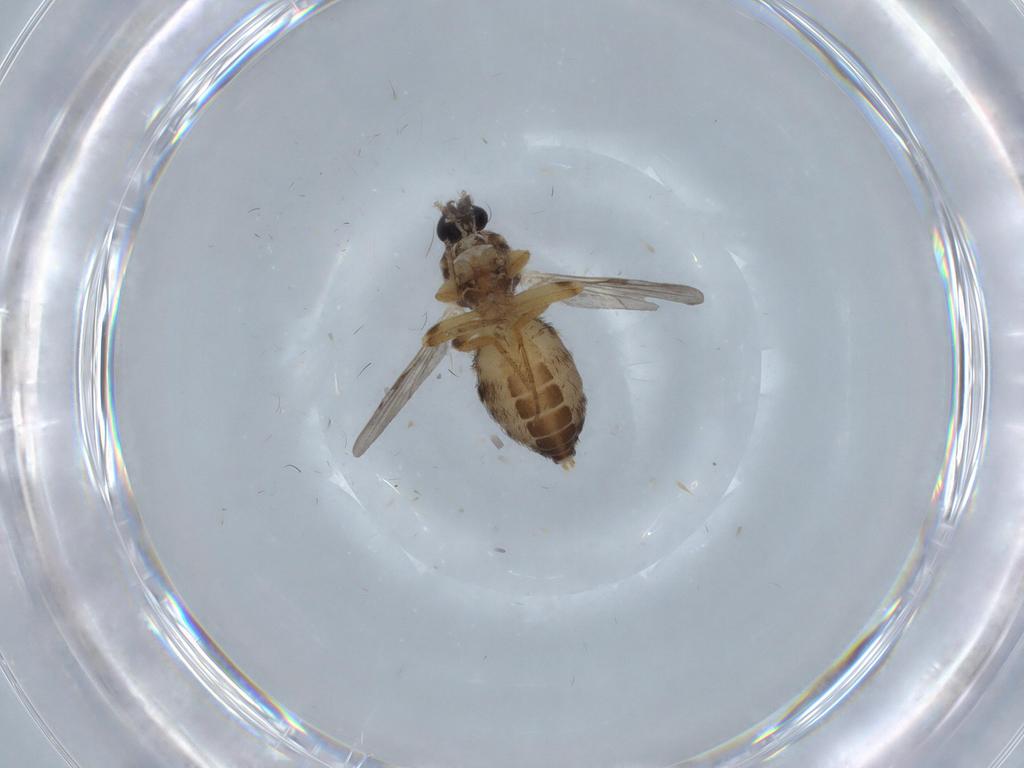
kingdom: Animalia
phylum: Arthropoda
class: Insecta
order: Diptera
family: Ceratopogonidae
